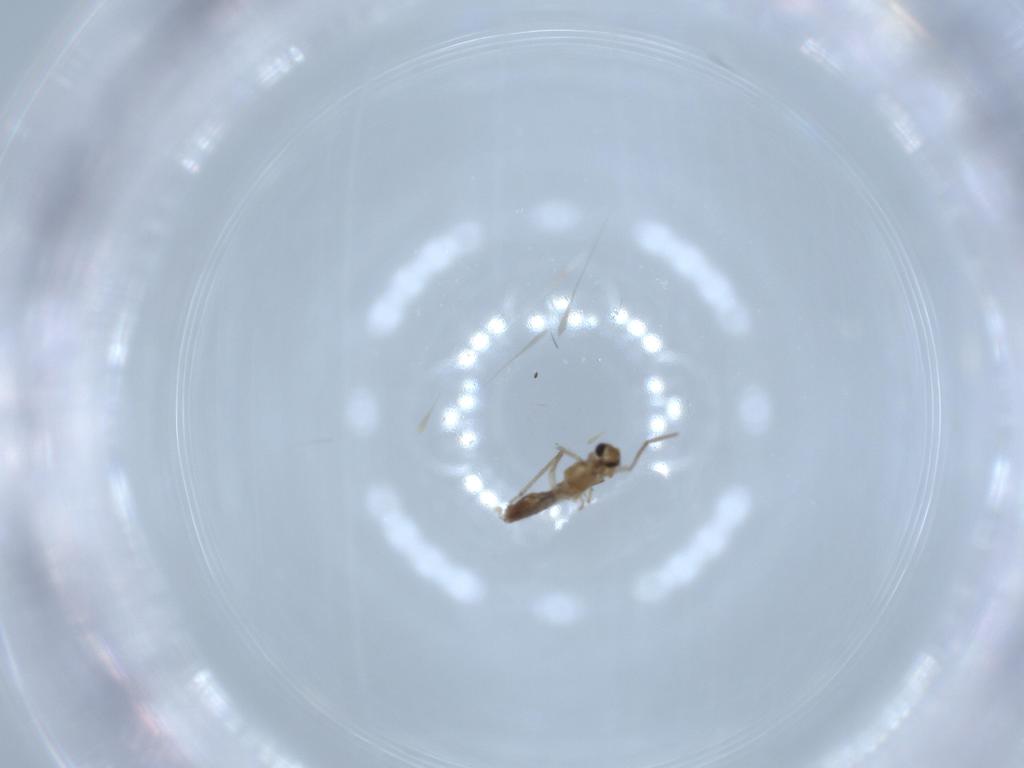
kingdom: Animalia
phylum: Arthropoda
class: Insecta
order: Diptera
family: Chironomidae
